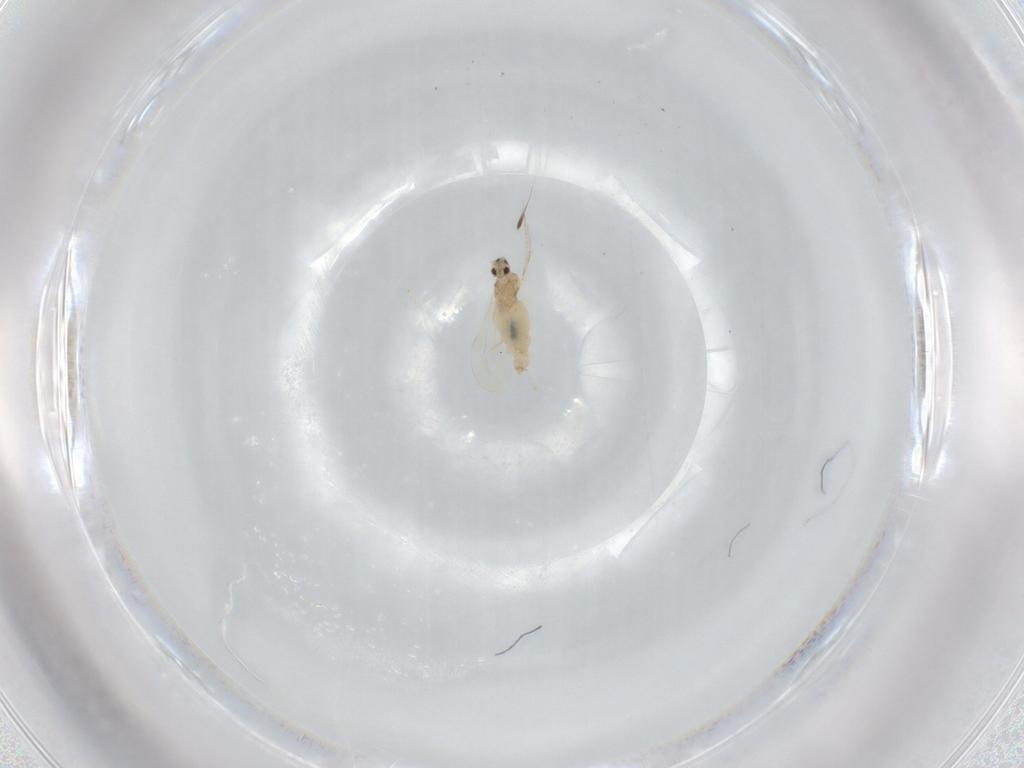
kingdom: Animalia
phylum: Arthropoda
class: Insecta
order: Diptera
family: Cecidomyiidae
